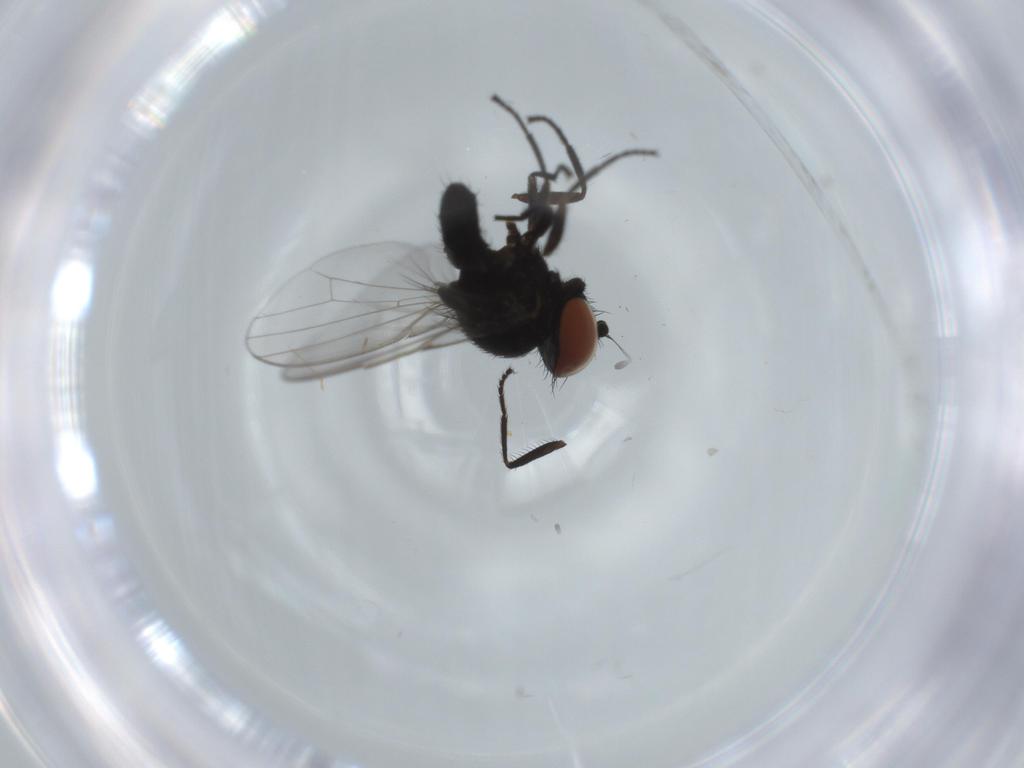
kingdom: Animalia
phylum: Arthropoda
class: Insecta
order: Diptera
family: Milichiidae
